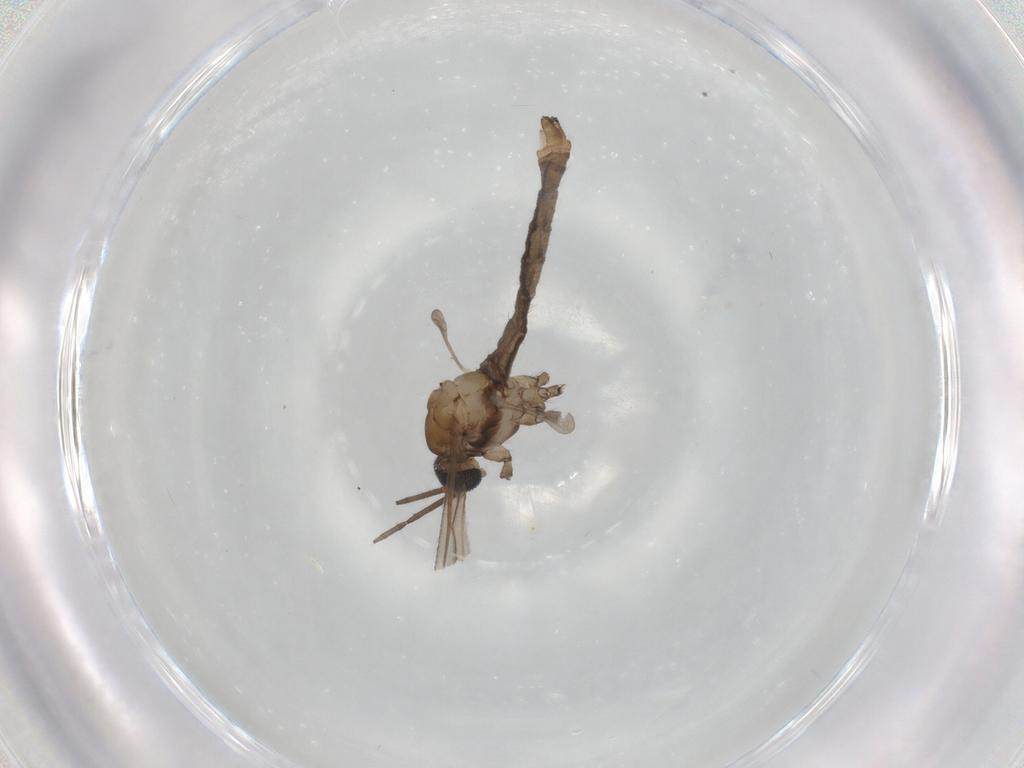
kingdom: Animalia
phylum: Arthropoda
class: Insecta
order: Diptera
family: Limoniidae
